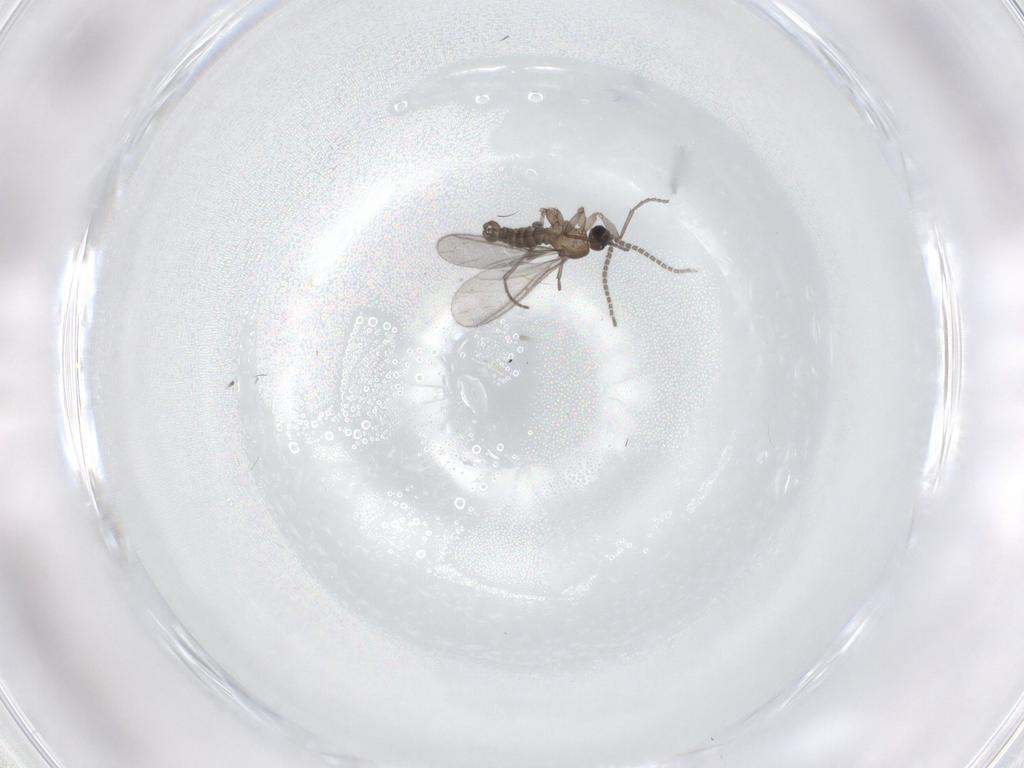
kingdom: Animalia
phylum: Arthropoda
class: Insecta
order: Diptera
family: Sciaridae
